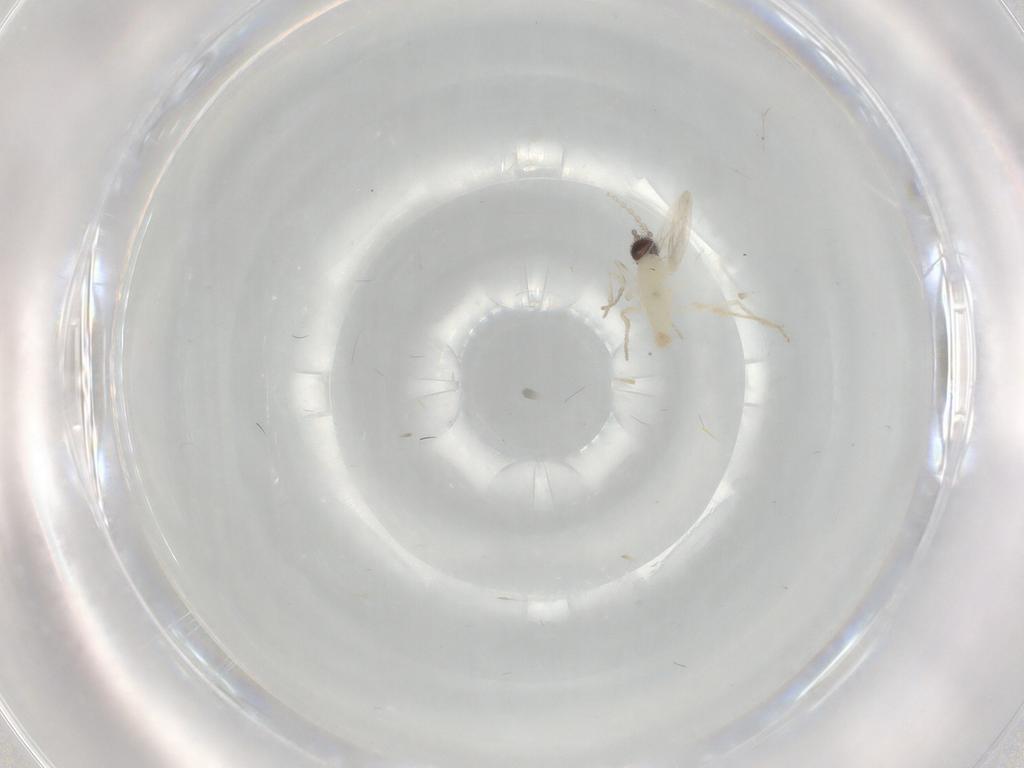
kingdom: Animalia
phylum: Arthropoda
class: Insecta
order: Diptera
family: Cecidomyiidae
